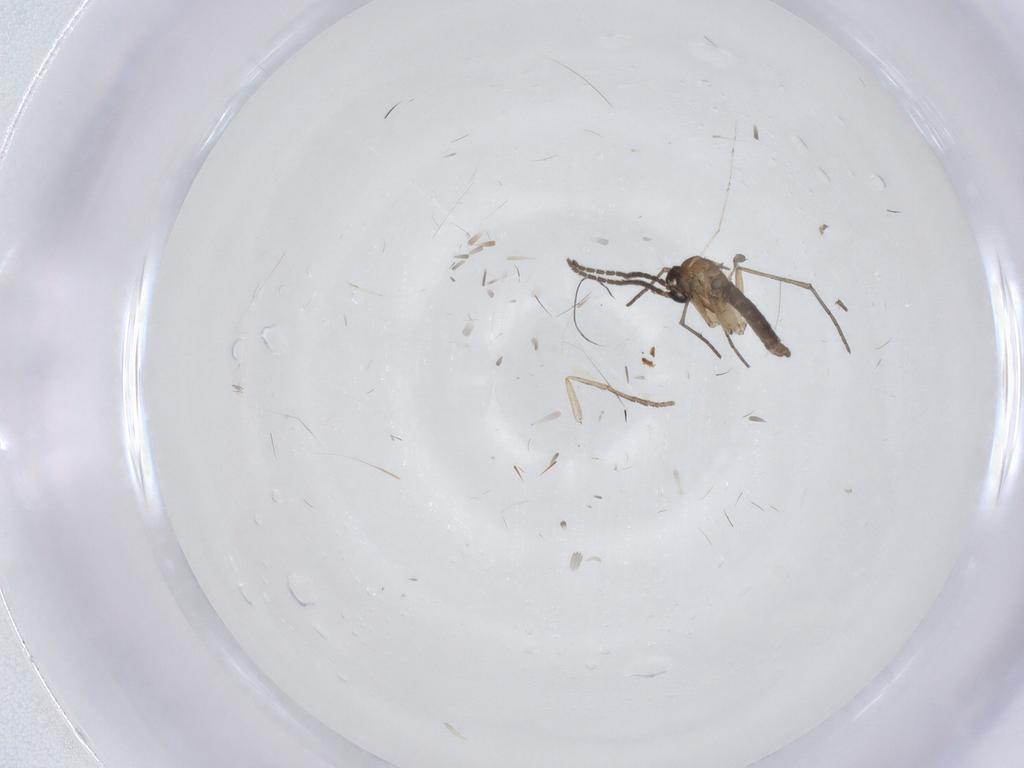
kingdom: Animalia
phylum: Arthropoda
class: Insecta
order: Diptera
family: Sciaridae
